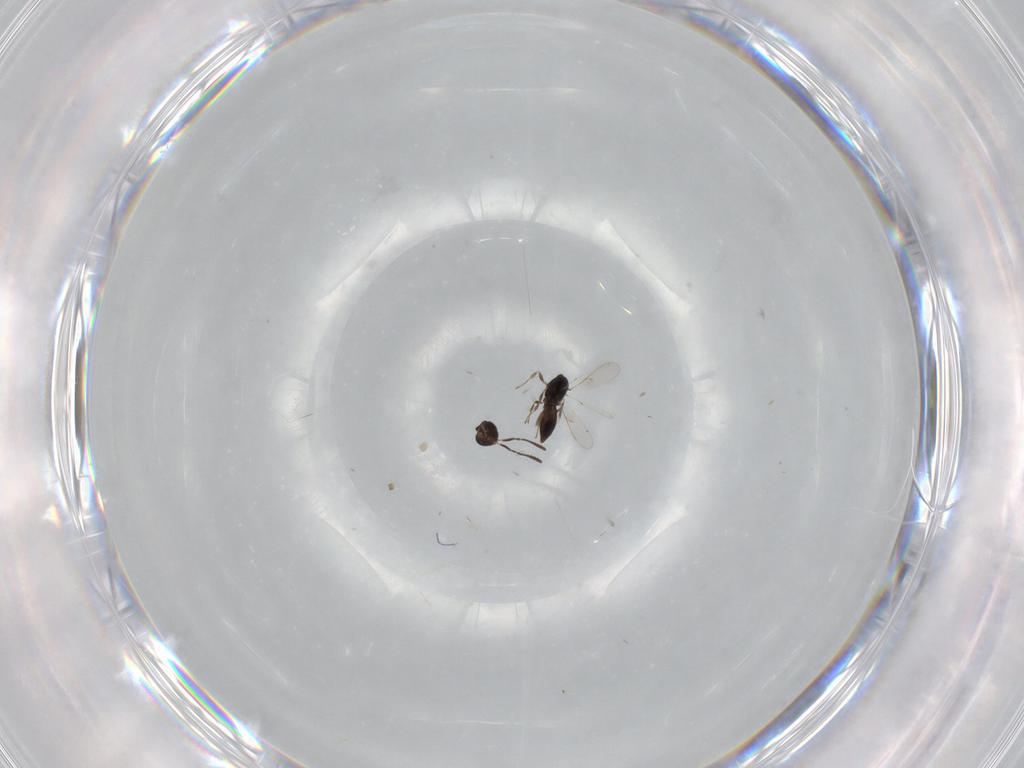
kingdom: Animalia
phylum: Arthropoda
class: Insecta
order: Hymenoptera
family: Scelionidae
